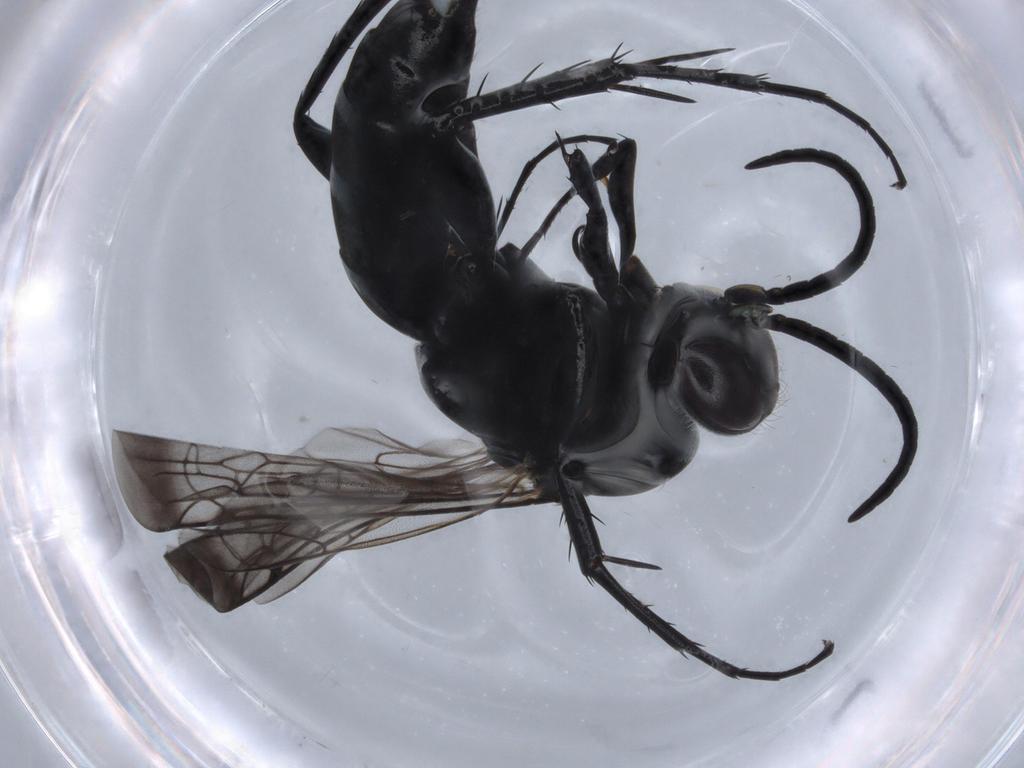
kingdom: Animalia
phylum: Arthropoda
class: Insecta
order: Hymenoptera
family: Pompilidae
